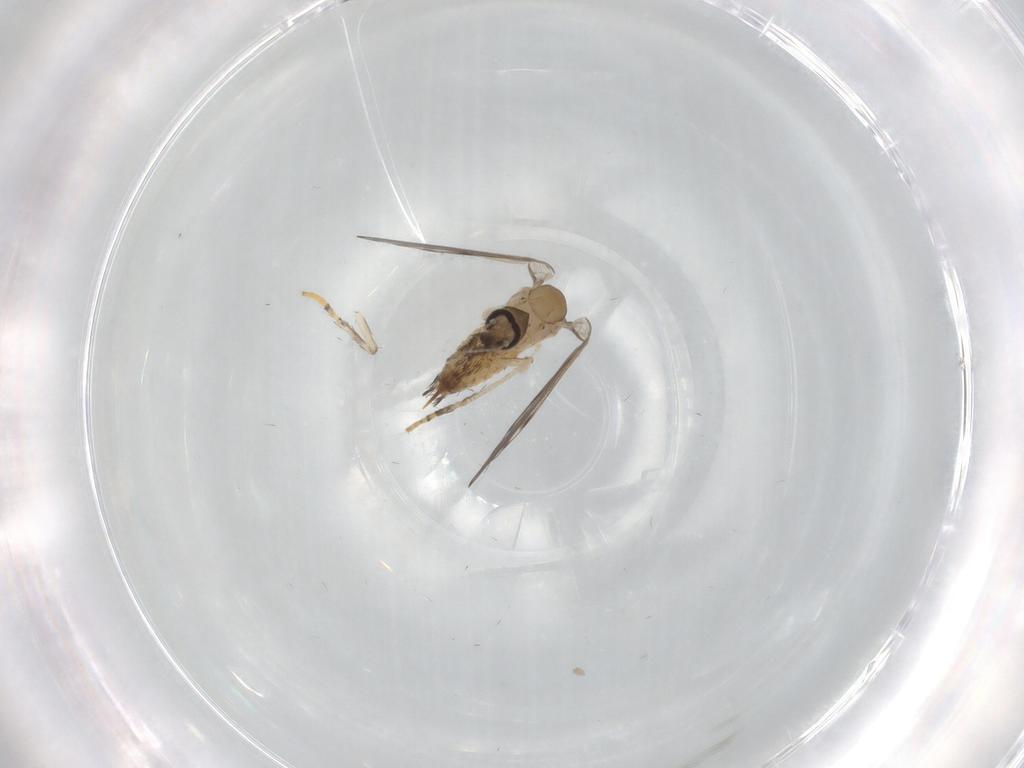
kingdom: Animalia
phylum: Arthropoda
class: Insecta
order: Diptera
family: Psychodidae
